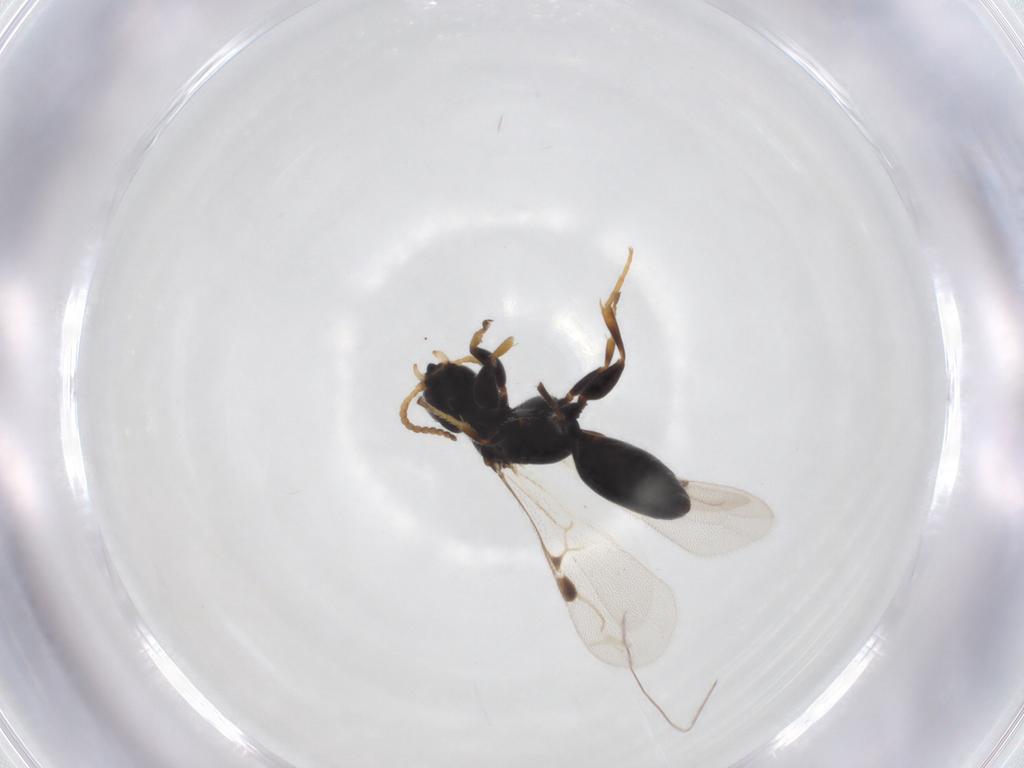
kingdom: Animalia
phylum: Arthropoda
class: Insecta
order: Hymenoptera
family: Bethylidae
